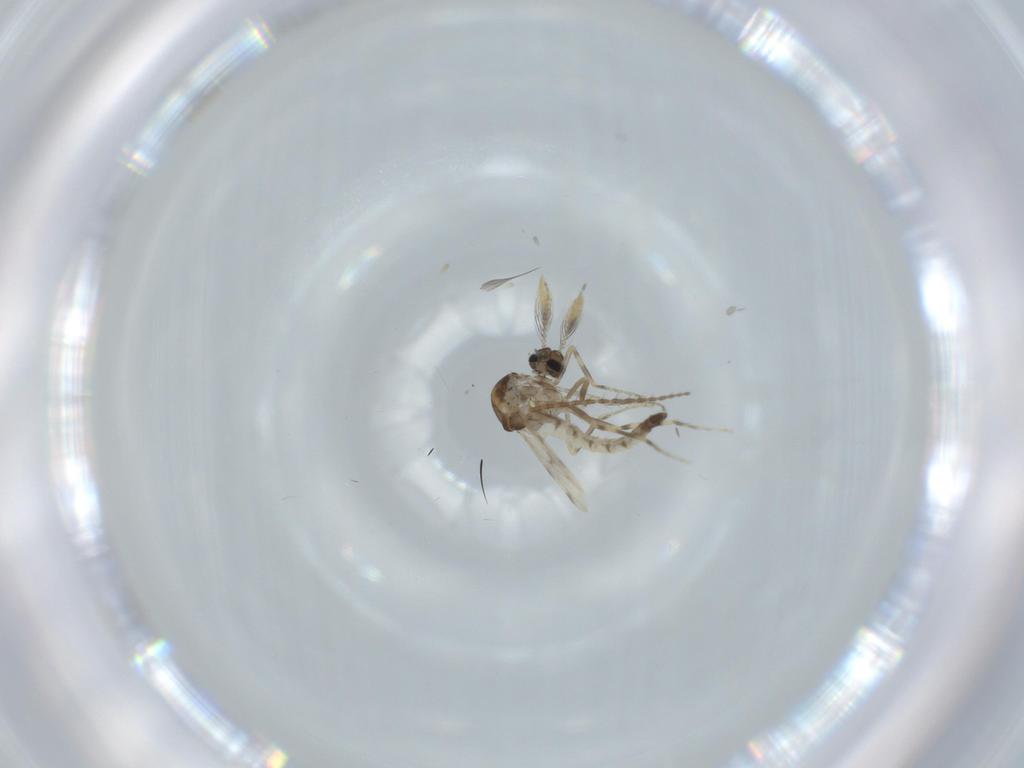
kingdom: Animalia
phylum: Arthropoda
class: Insecta
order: Diptera
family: Ceratopogonidae
